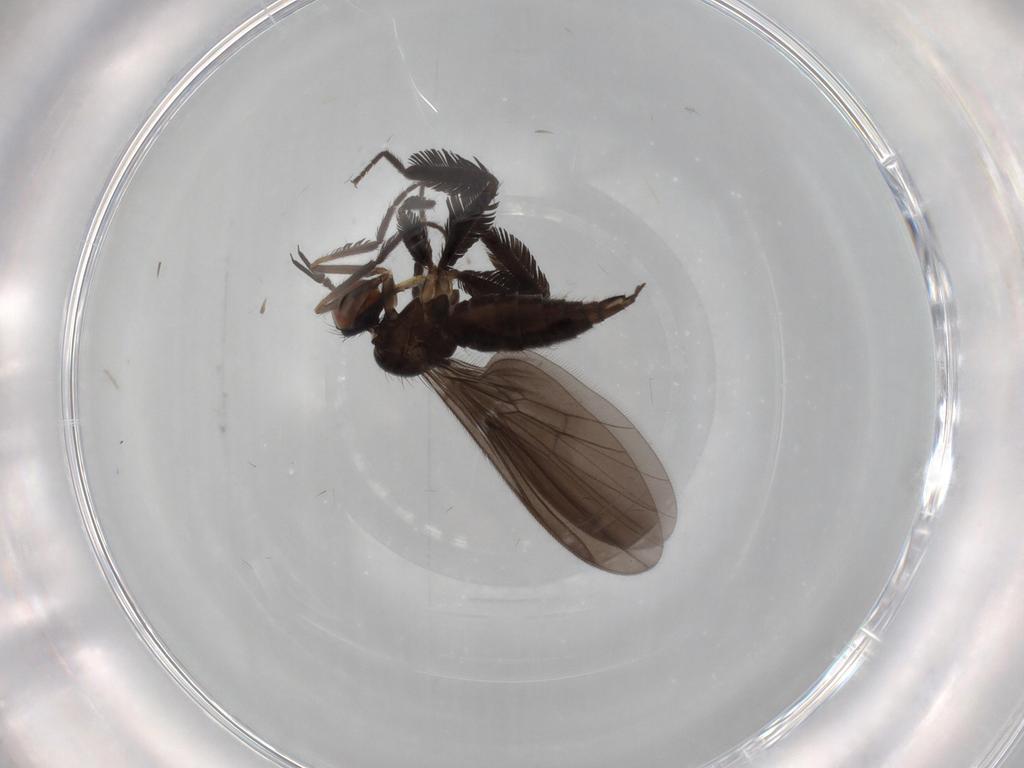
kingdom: Animalia
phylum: Arthropoda
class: Insecta
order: Diptera
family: Empididae
